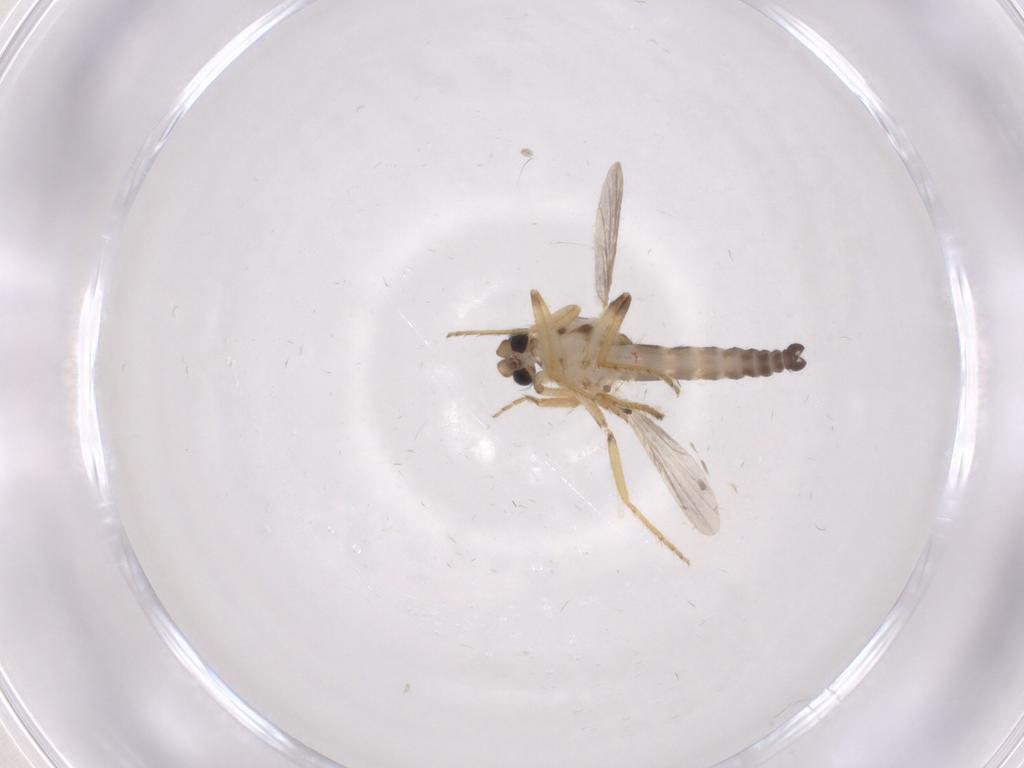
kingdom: Animalia
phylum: Arthropoda
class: Insecta
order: Diptera
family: Ceratopogonidae
